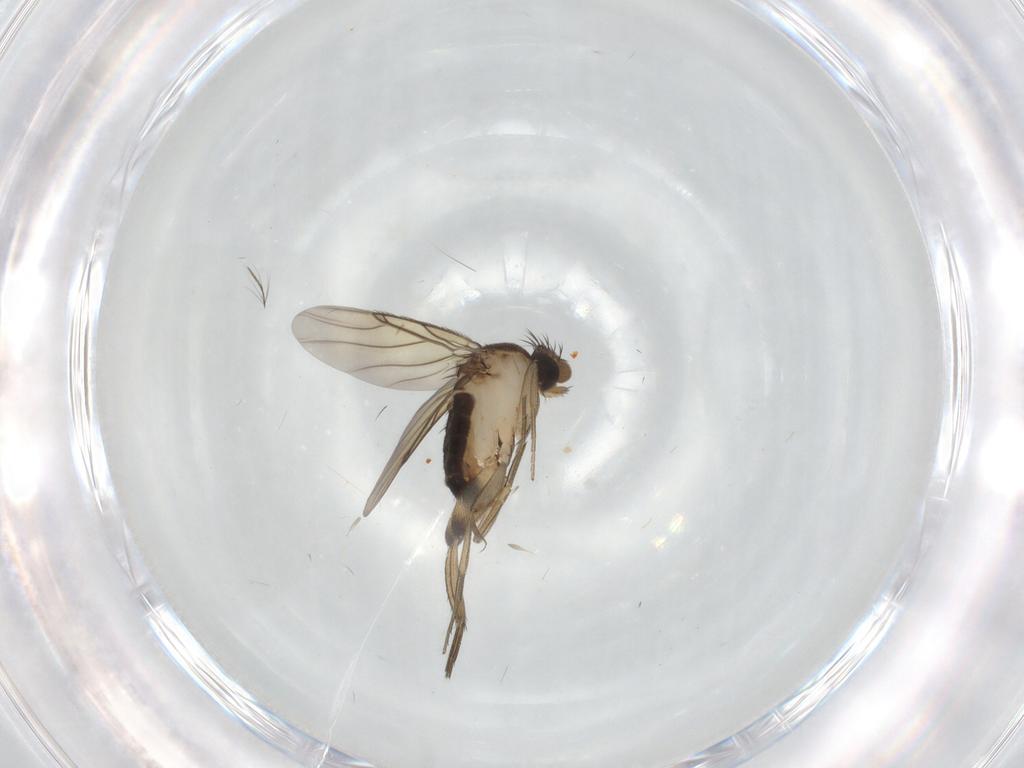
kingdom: Animalia
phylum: Arthropoda
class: Insecta
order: Diptera
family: Phoridae
